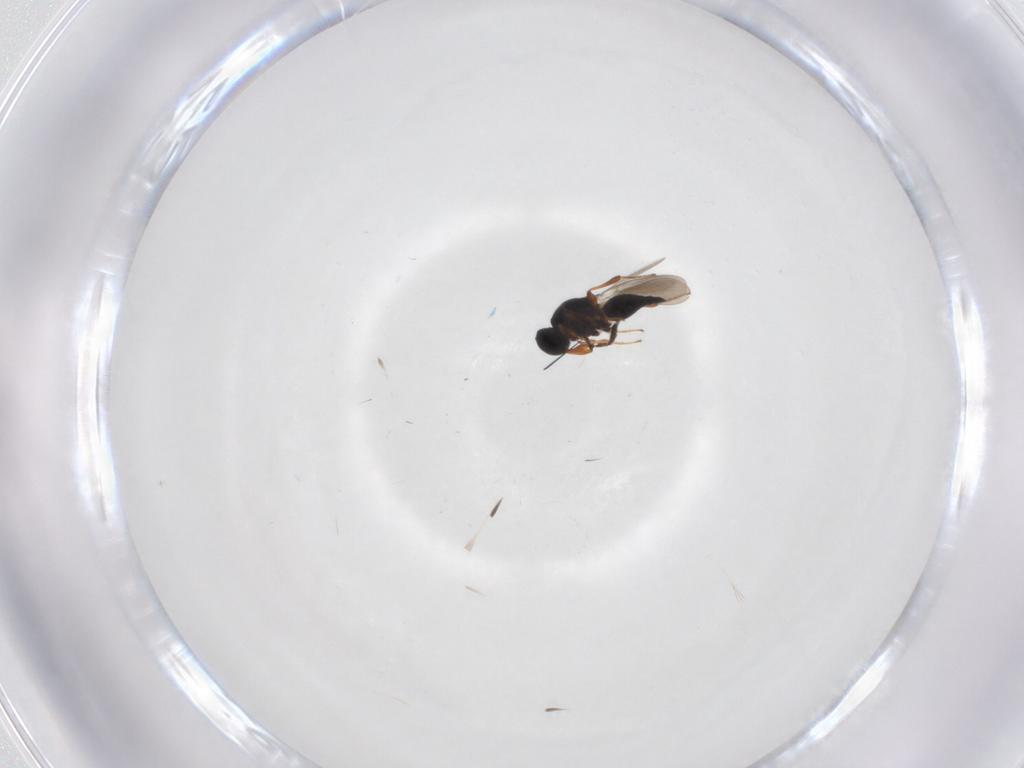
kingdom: Animalia
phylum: Arthropoda
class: Insecta
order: Hymenoptera
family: Platygastridae
